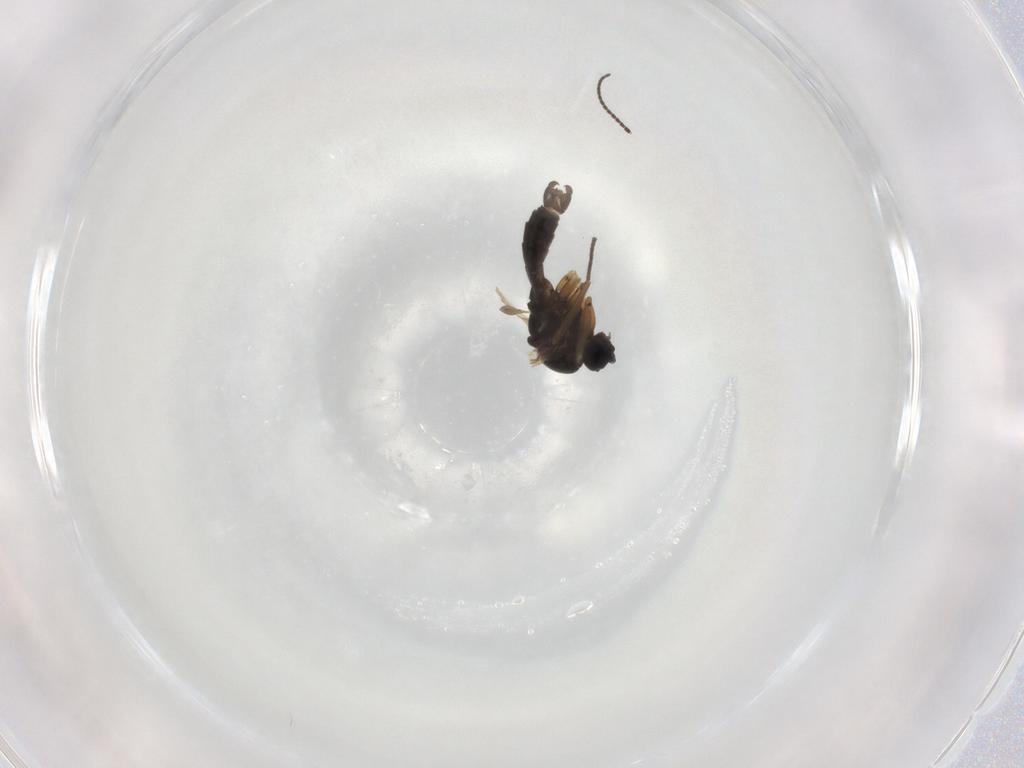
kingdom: Animalia
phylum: Arthropoda
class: Insecta
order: Diptera
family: Sciaridae
